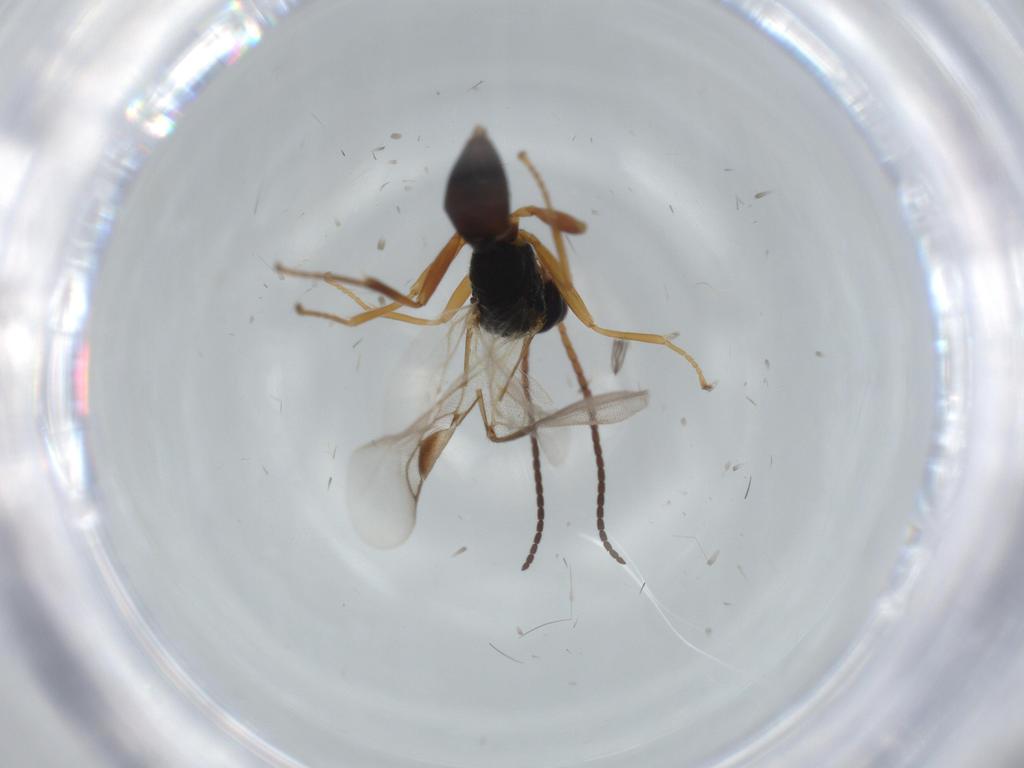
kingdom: Animalia
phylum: Arthropoda
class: Insecta
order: Hymenoptera
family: Braconidae
